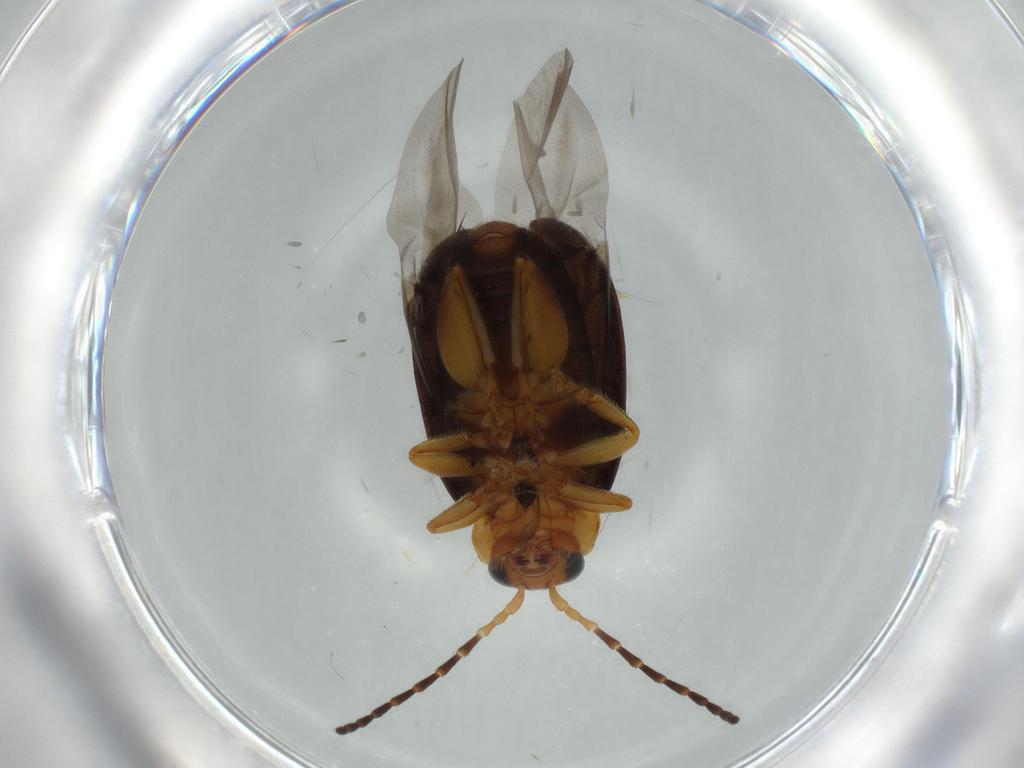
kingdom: Animalia
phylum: Arthropoda
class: Insecta
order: Coleoptera
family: Chrysomelidae
